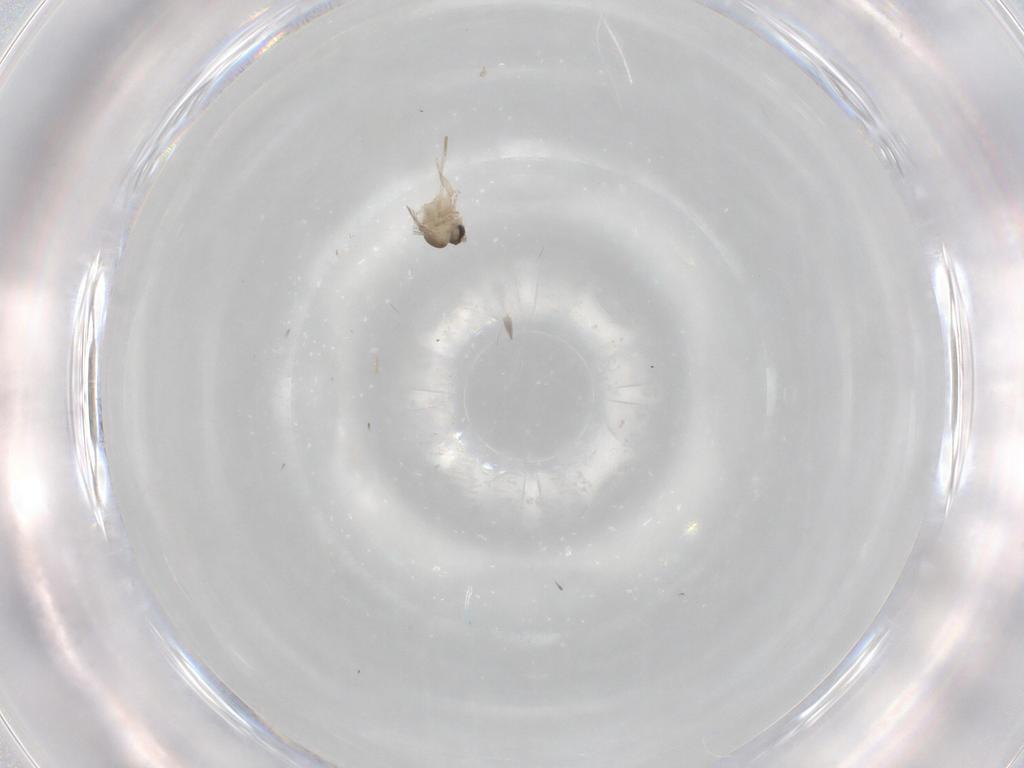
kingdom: Animalia
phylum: Arthropoda
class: Insecta
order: Diptera
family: Cecidomyiidae
